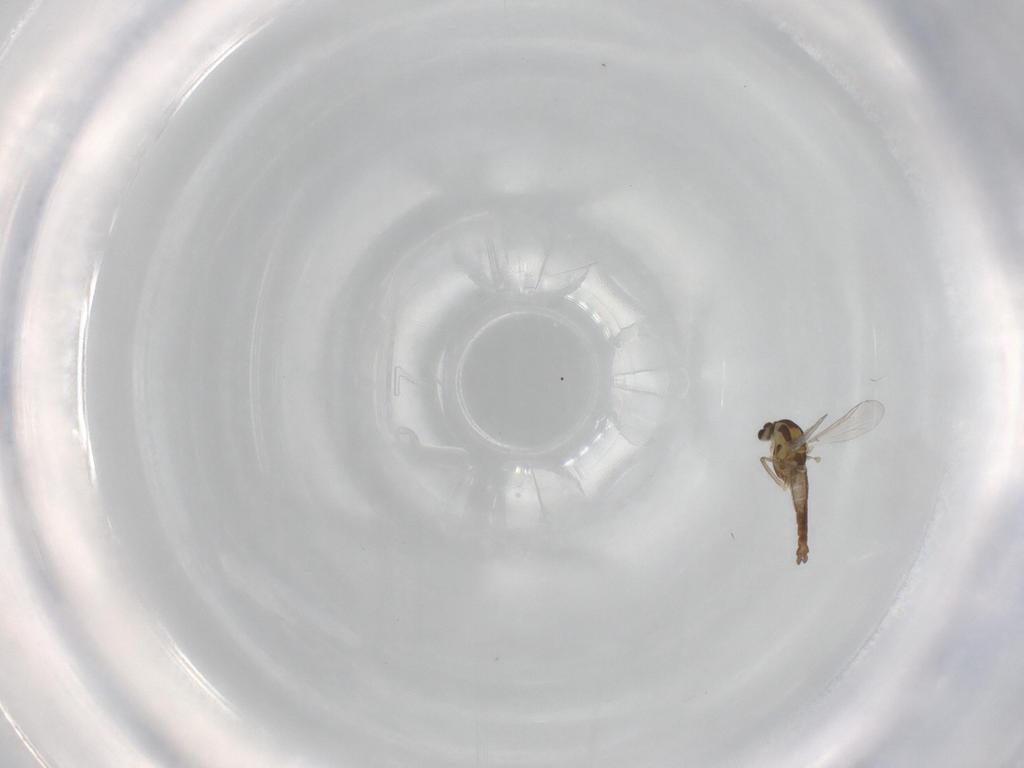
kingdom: Animalia
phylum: Arthropoda
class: Insecta
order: Diptera
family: Chironomidae
